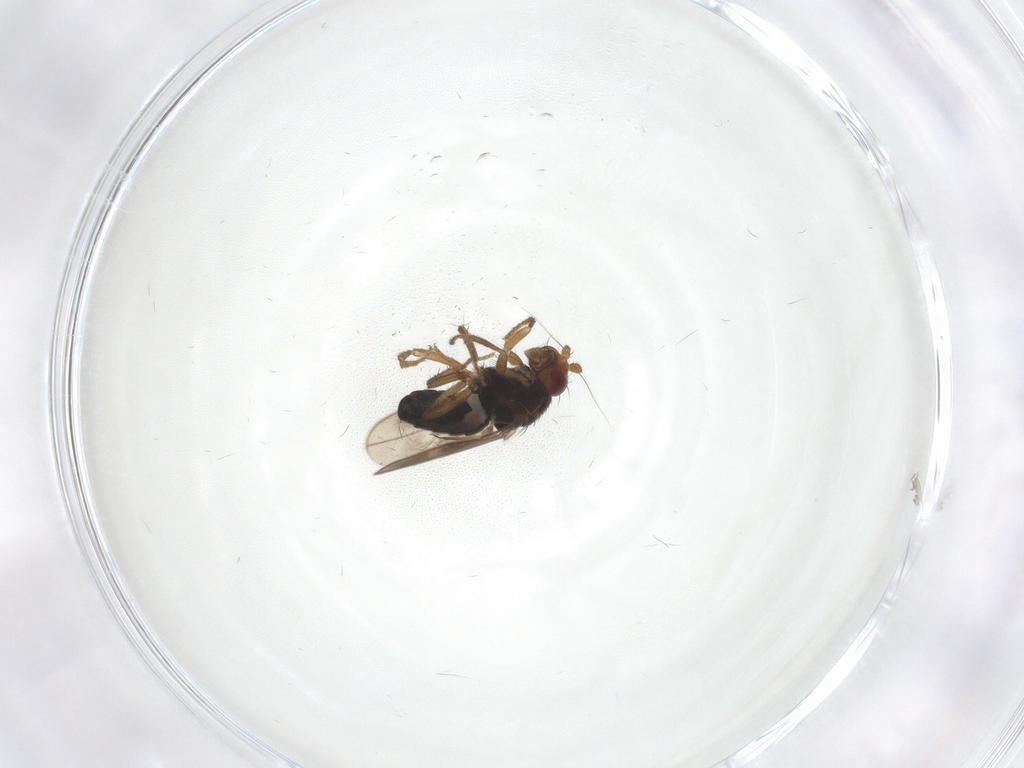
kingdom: Animalia
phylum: Arthropoda
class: Insecta
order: Diptera
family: Sphaeroceridae
